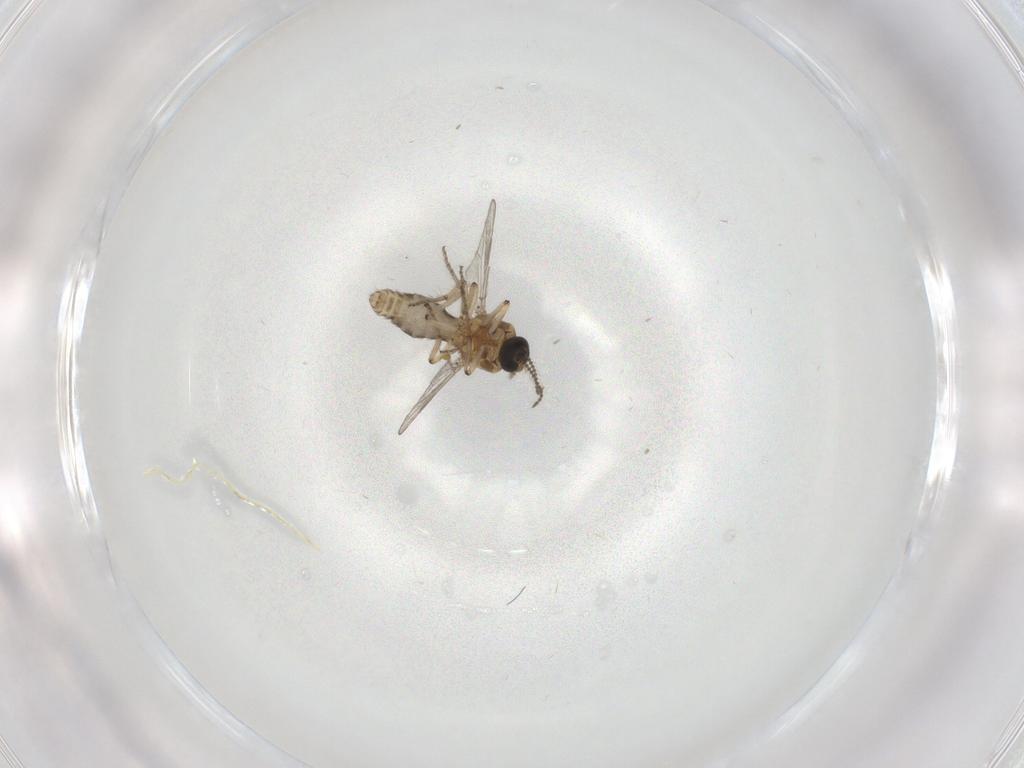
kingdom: Animalia
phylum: Arthropoda
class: Insecta
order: Diptera
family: Ceratopogonidae
